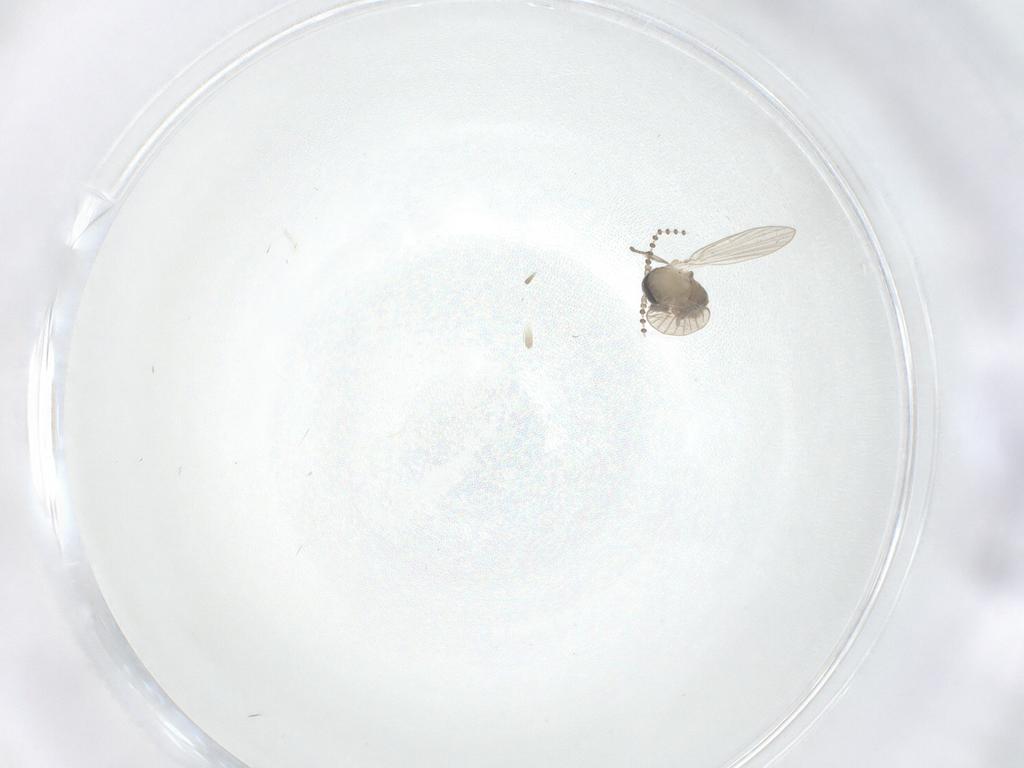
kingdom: Animalia
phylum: Arthropoda
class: Insecta
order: Diptera
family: Psychodidae
